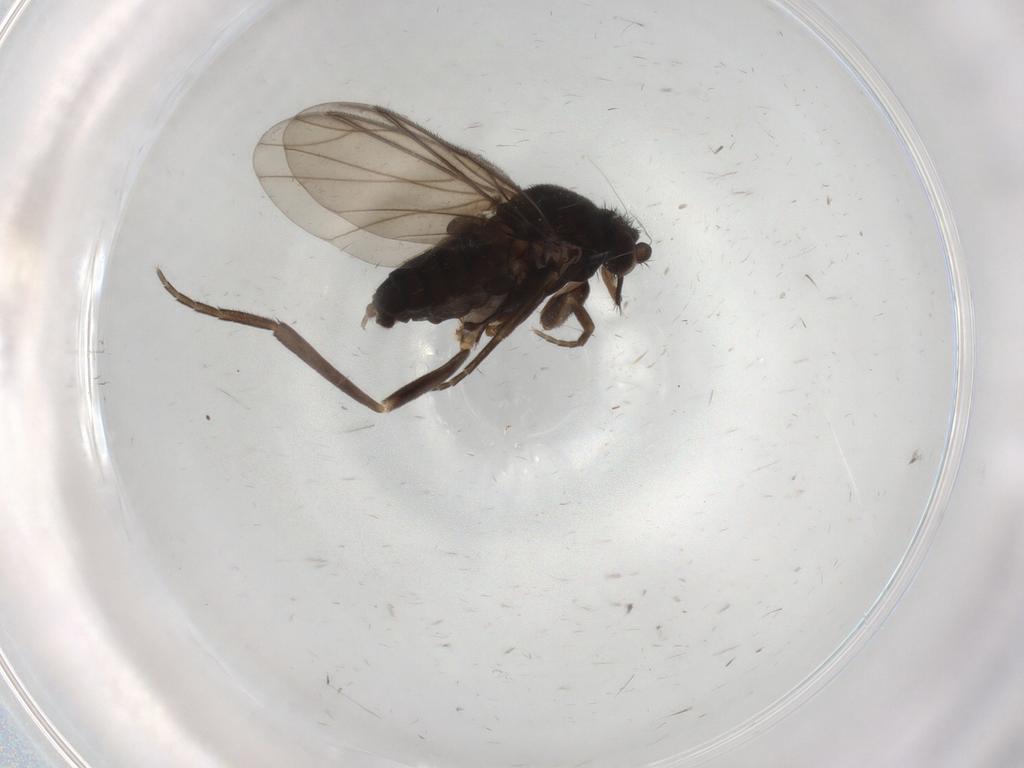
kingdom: Animalia
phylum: Arthropoda
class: Insecta
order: Diptera
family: Phoridae
